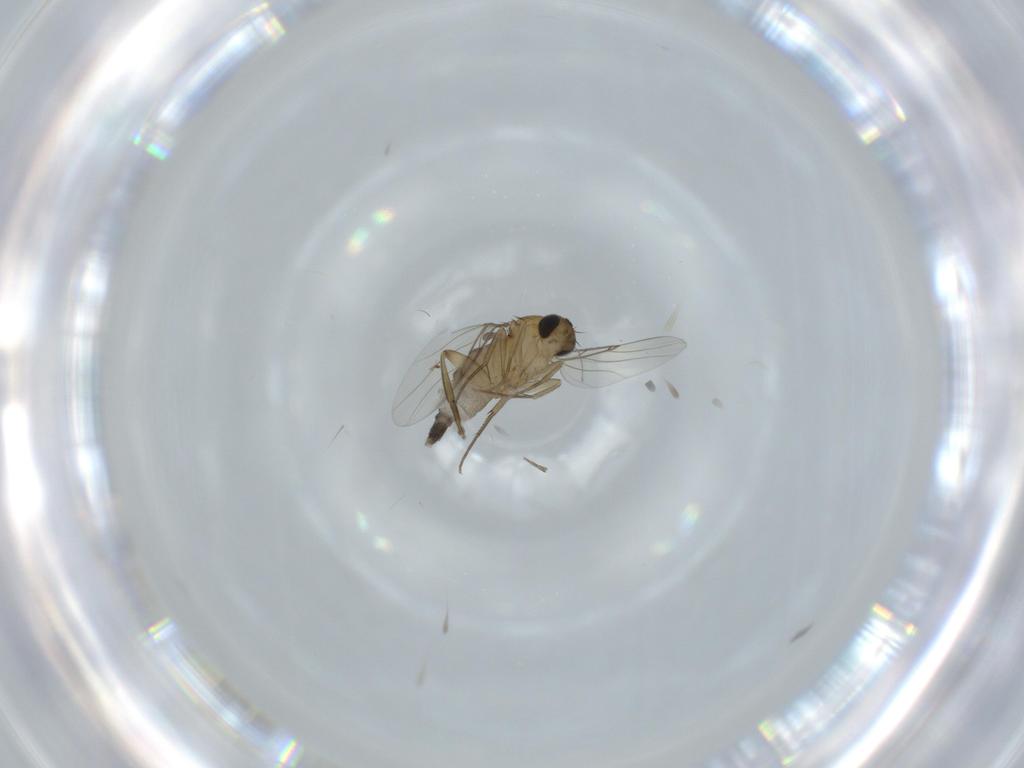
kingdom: Animalia
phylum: Arthropoda
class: Insecta
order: Diptera
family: Phoridae
